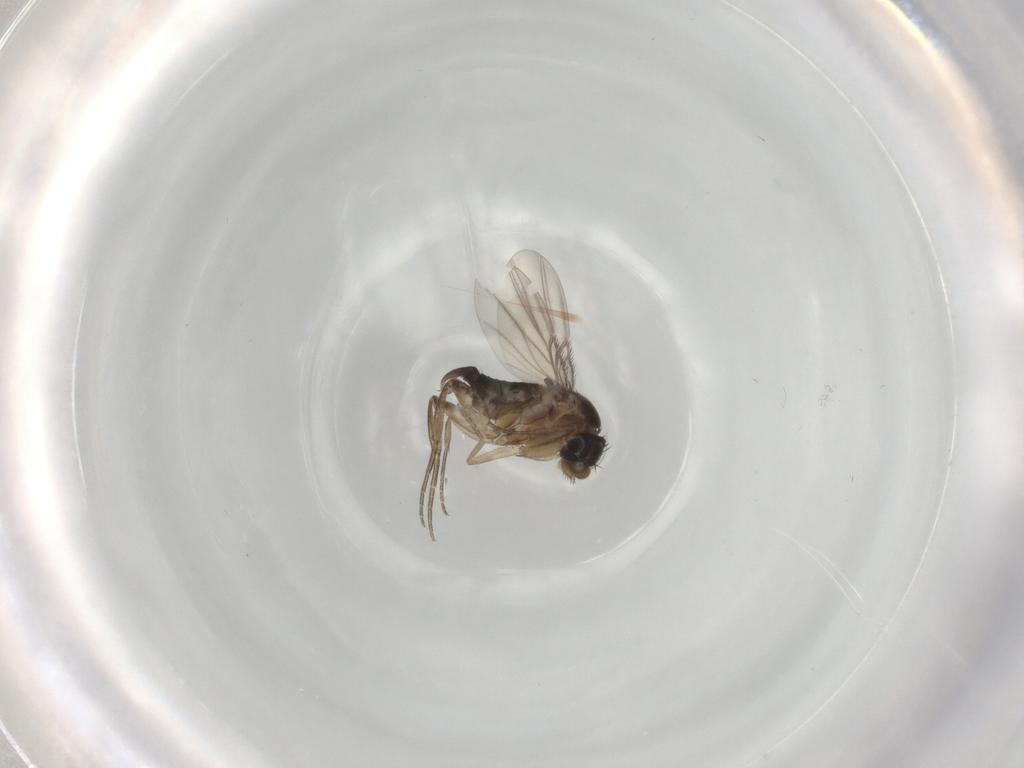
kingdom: Animalia
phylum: Arthropoda
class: Insecta
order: Diptera
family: Phoridae
